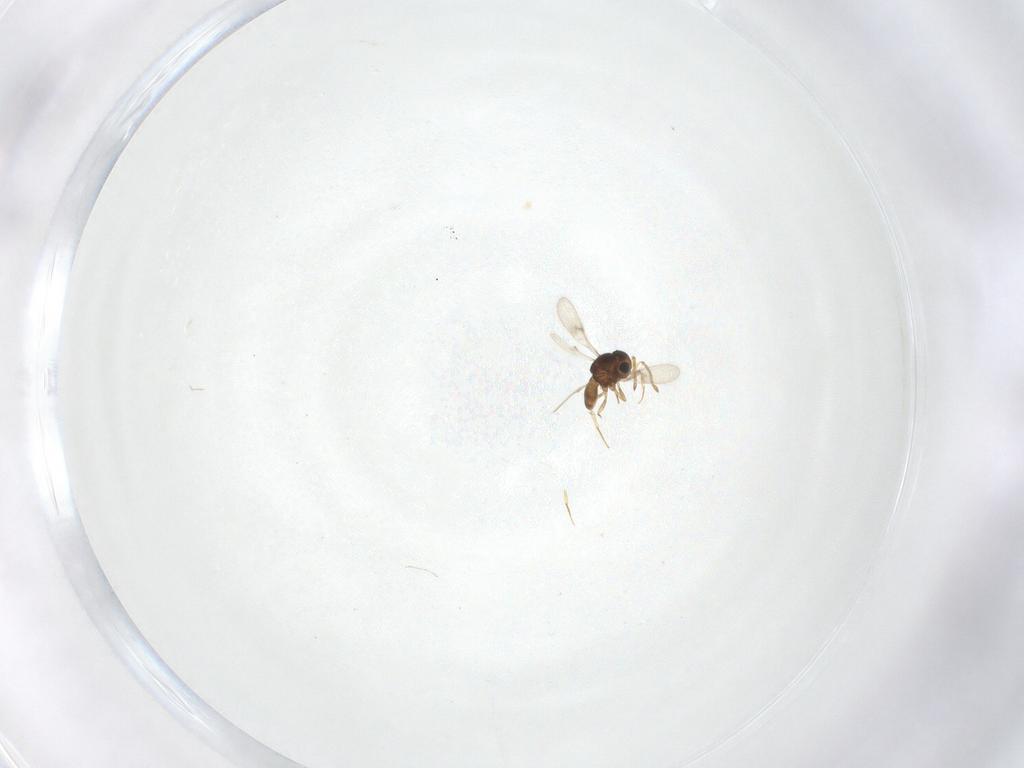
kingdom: Animalia
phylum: Arthropoda
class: Insecta
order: Hymenoptera
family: Scelionidae
